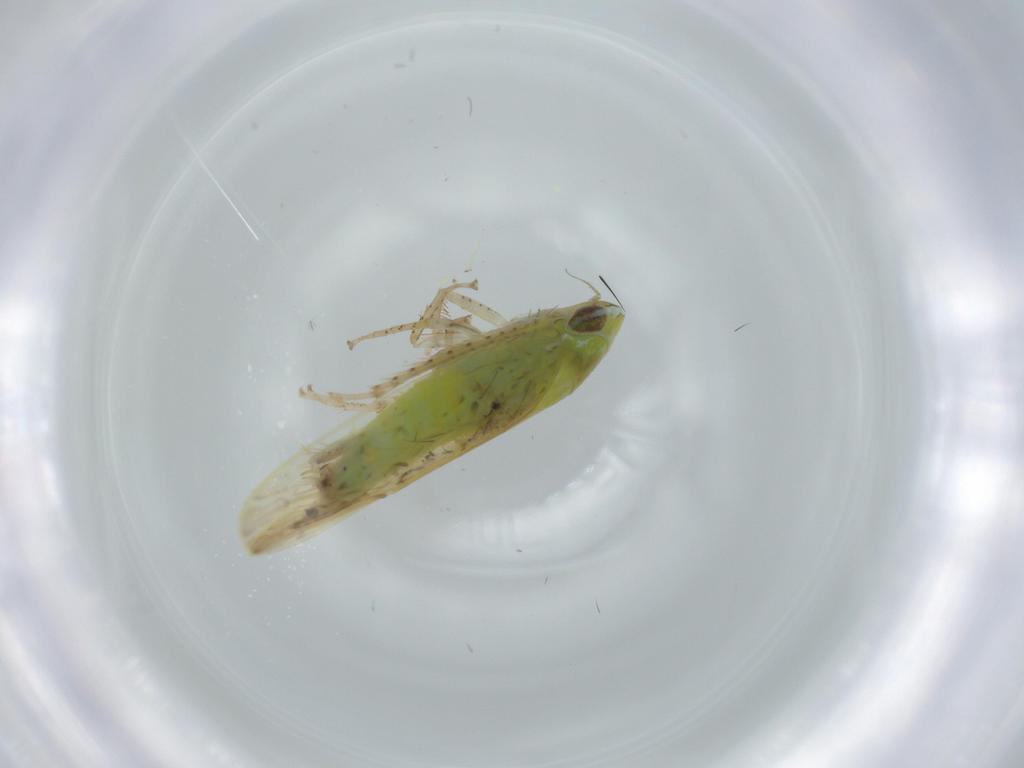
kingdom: Animalia
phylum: Arthropoda
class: Insecta
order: Hemiptera
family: Cicadellidae
